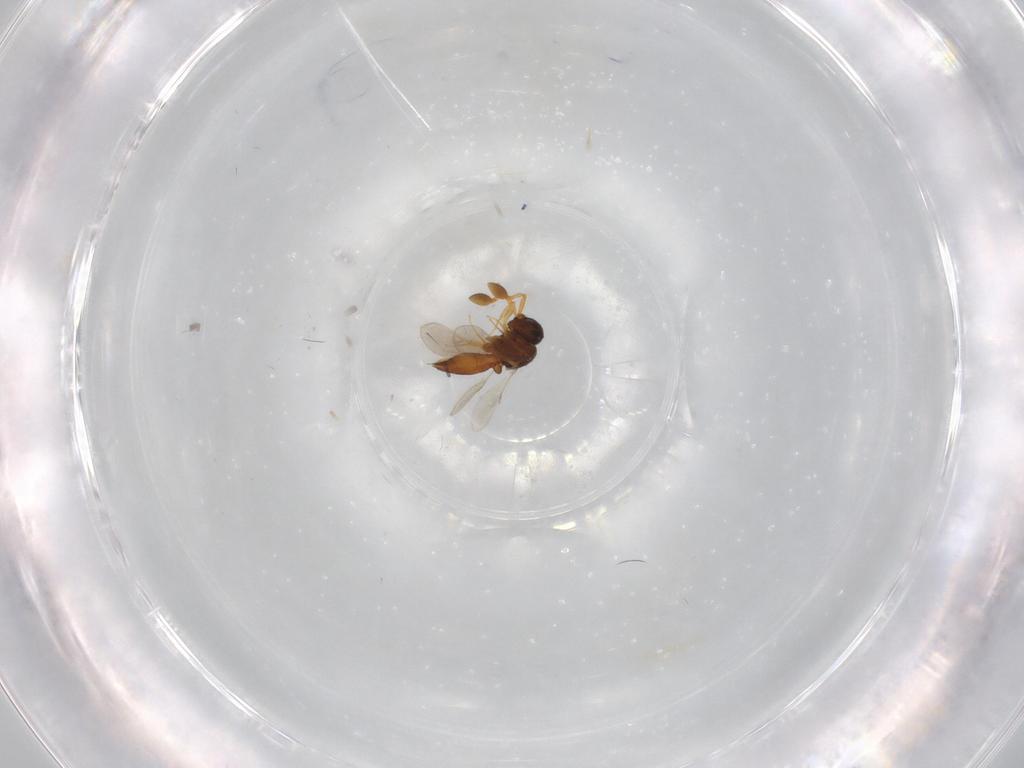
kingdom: Animalia
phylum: Arthropoda
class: Insecta
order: Hymenoptera
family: Scelionidae
